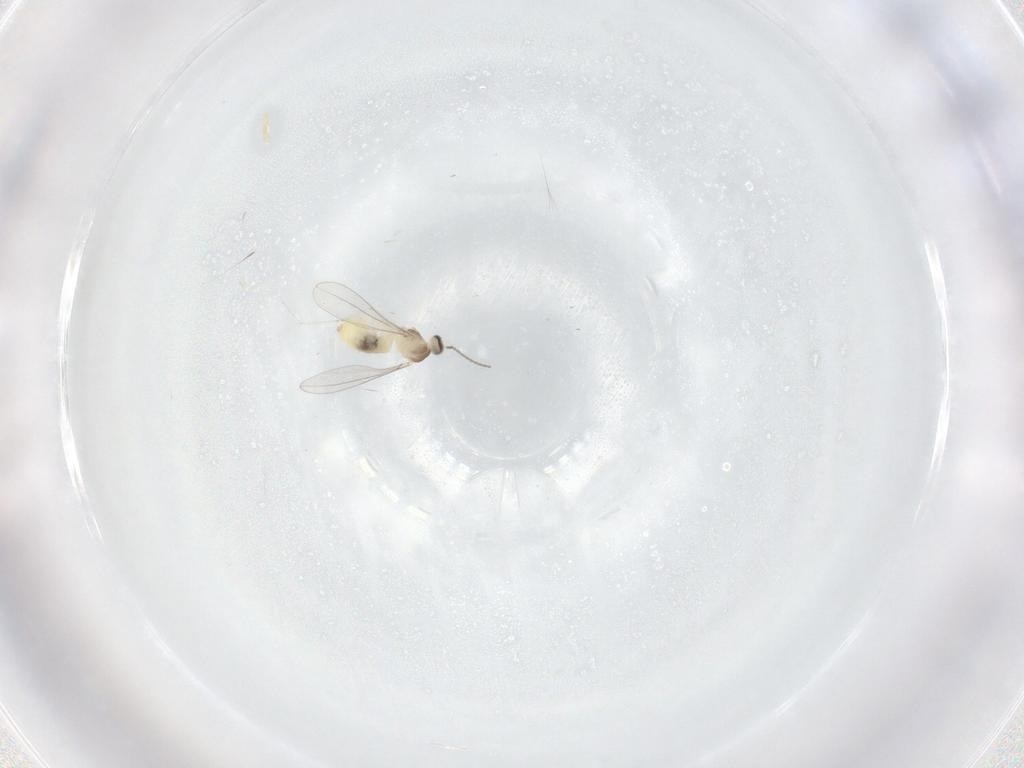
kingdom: Animalia
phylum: Arthropoda
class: Insecta
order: Diptera
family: Cecidomyiidae
